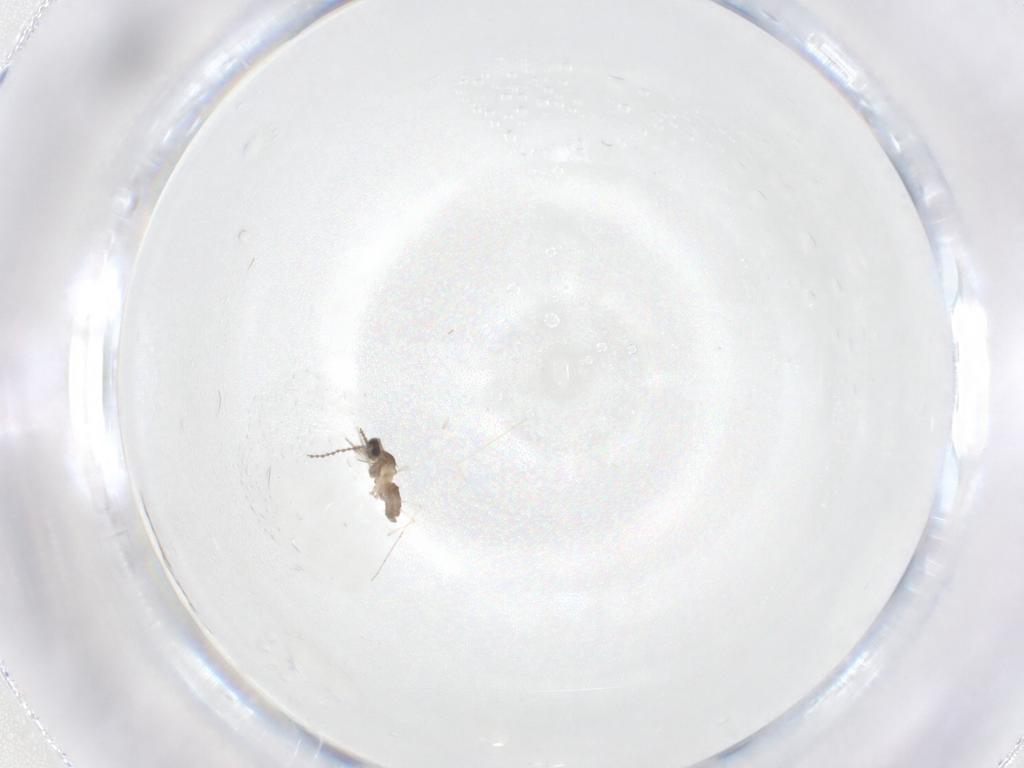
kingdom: Animalia
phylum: Arthropoda
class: Insecta
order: Diptera
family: Cecidomyiidae
